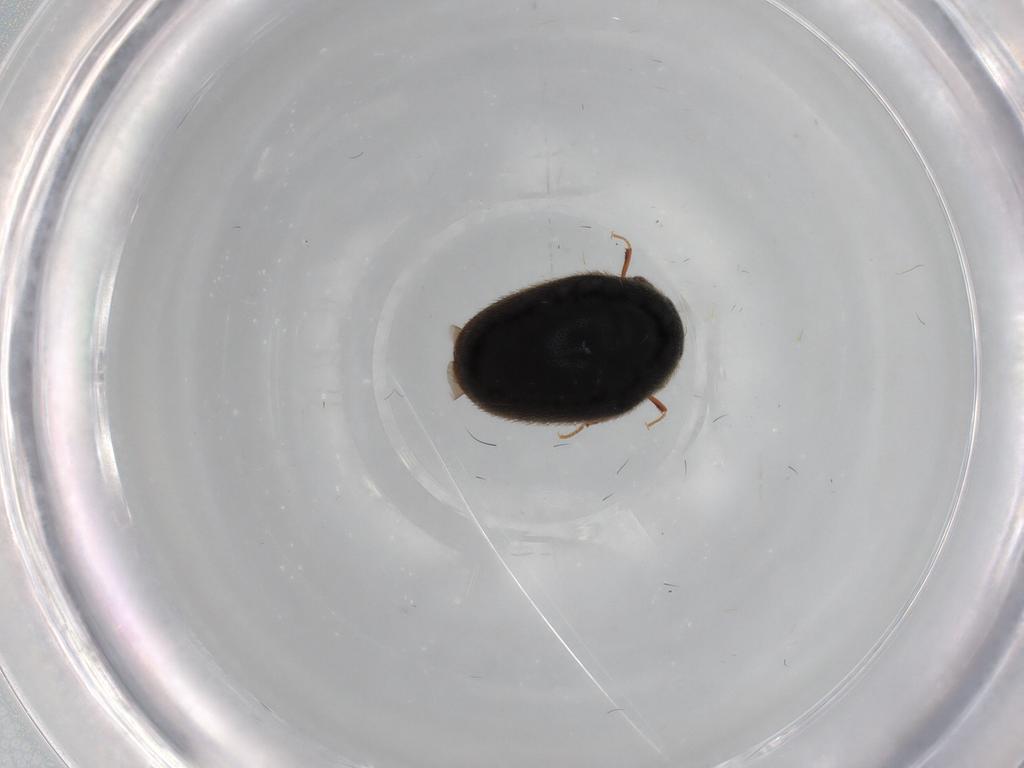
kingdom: Animalia
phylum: Arthropoda
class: Insecta
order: Coleoptera
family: Dermestidae
